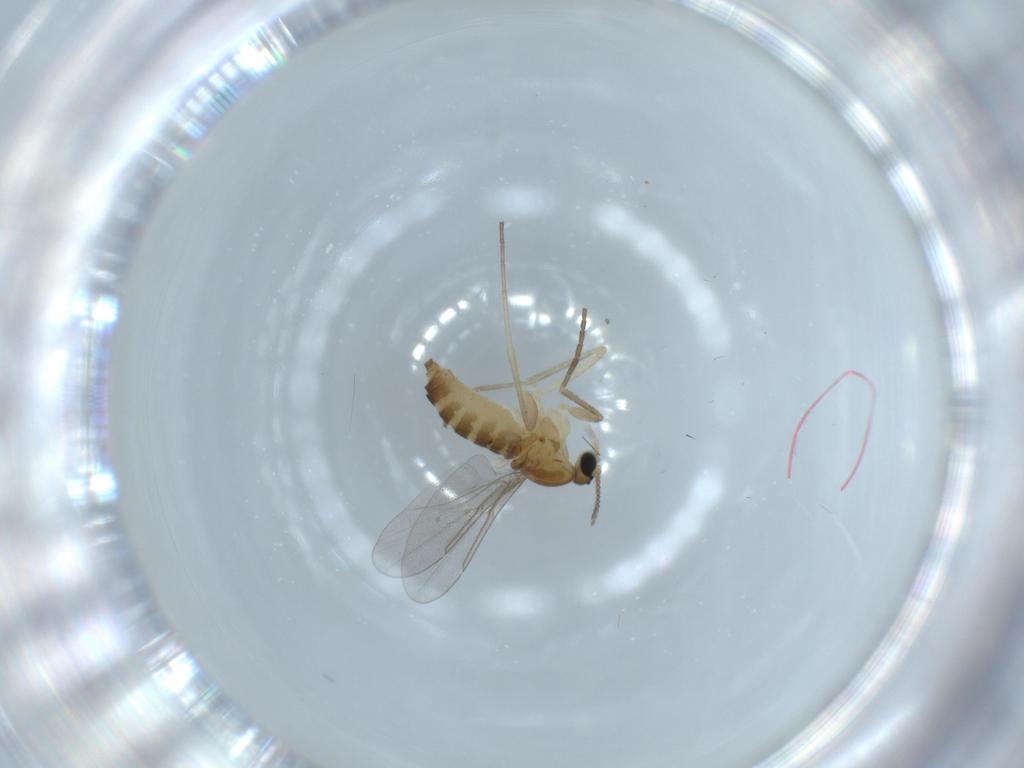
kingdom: Animalia
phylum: Arthropoda
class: Insecta
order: Diptera
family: Cecidomyiidae
